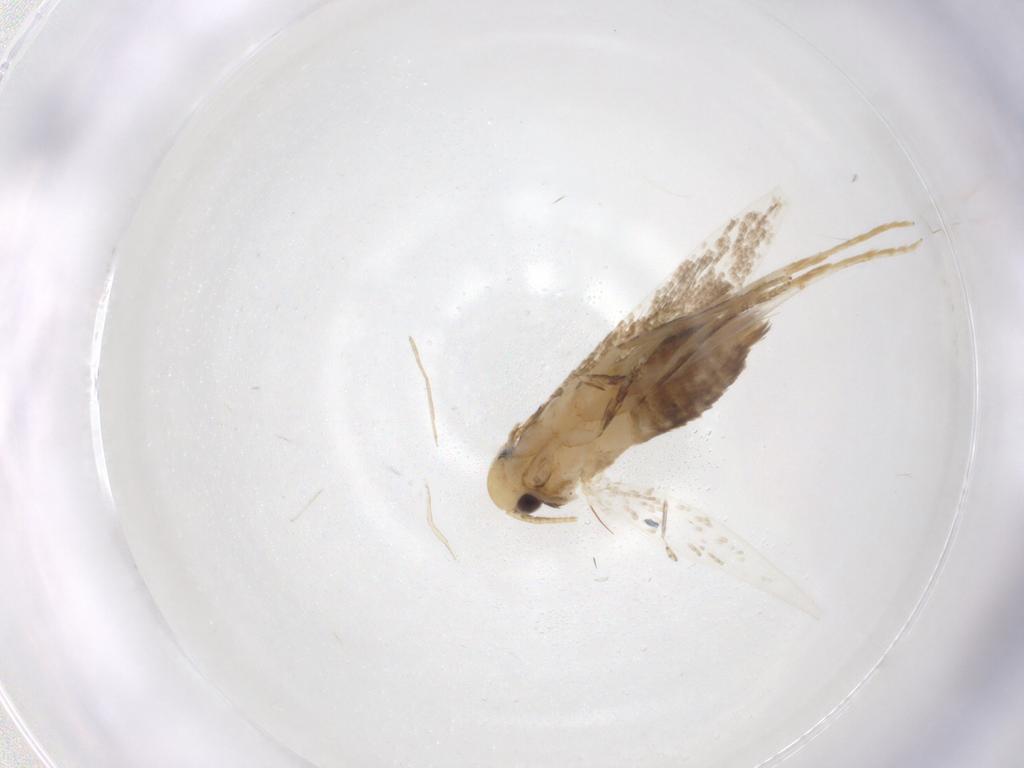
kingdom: Animalia
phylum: Arthropoda
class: Insecta
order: Lepidoptera
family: Tineidae
